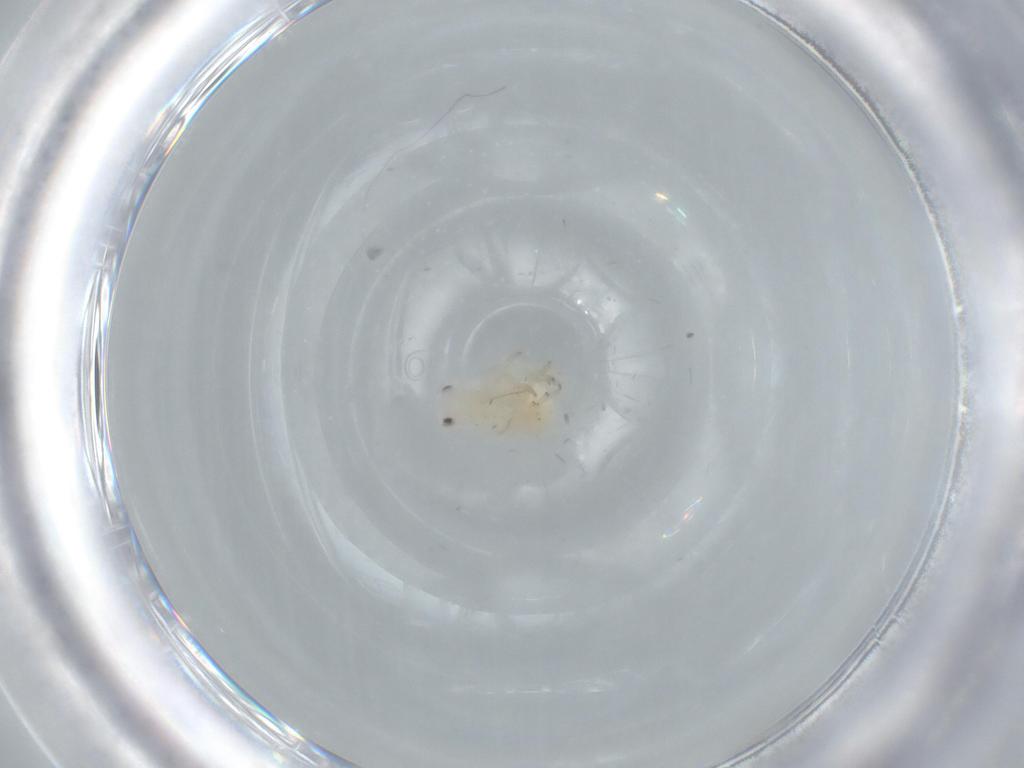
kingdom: Animalia
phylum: Arthropoda
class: Insecta
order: Hemiptera
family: Flatidae
